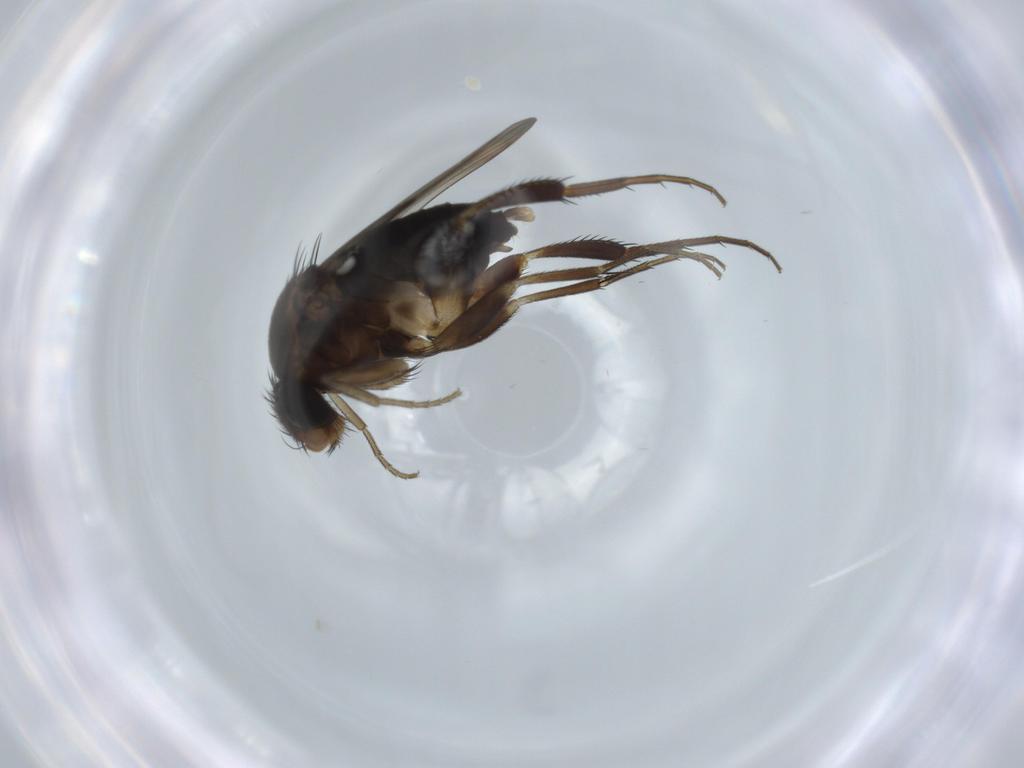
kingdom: Animalia
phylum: Arthropoda
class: Insecta
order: Diptera
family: Phoridae
